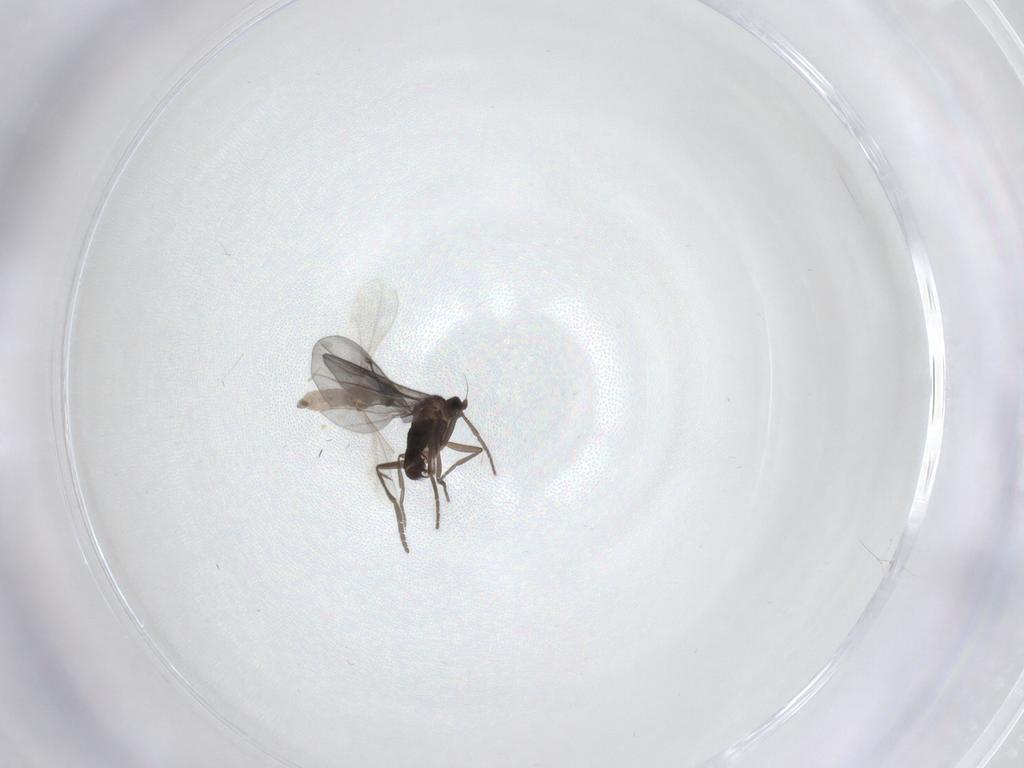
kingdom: Animalia
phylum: Arthropoda
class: Insecta
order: Diptera
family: Phoridae
